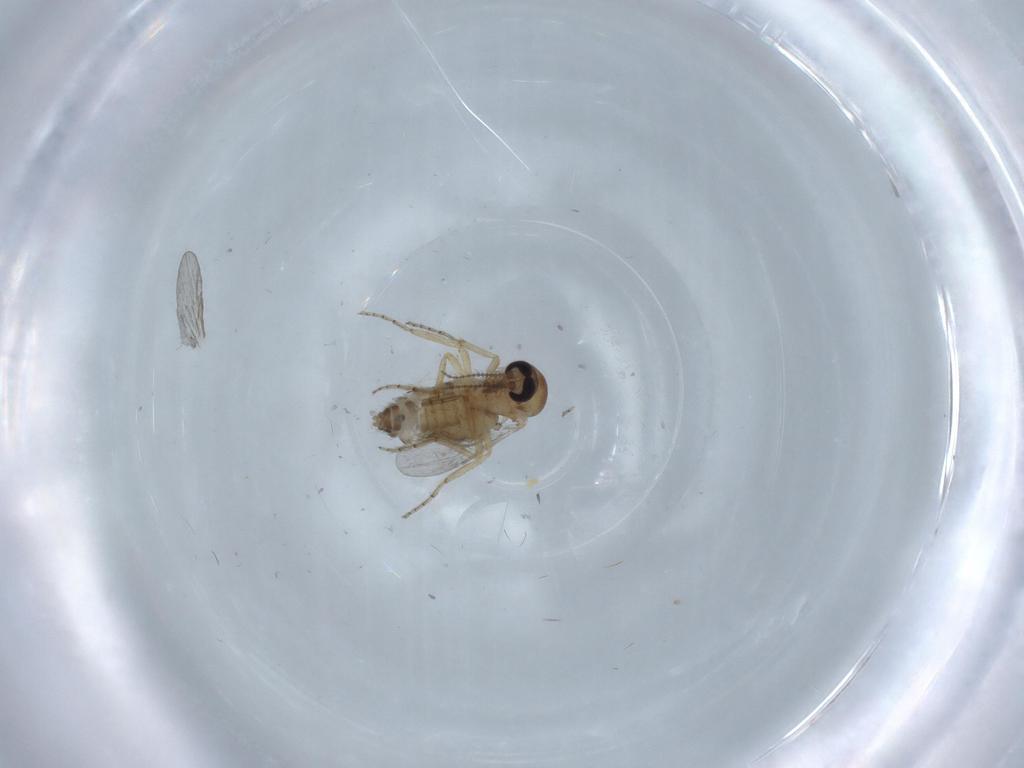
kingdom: Animalia
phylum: Arthropoda
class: Insecta
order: Diptera
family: Ceratopogonidae
